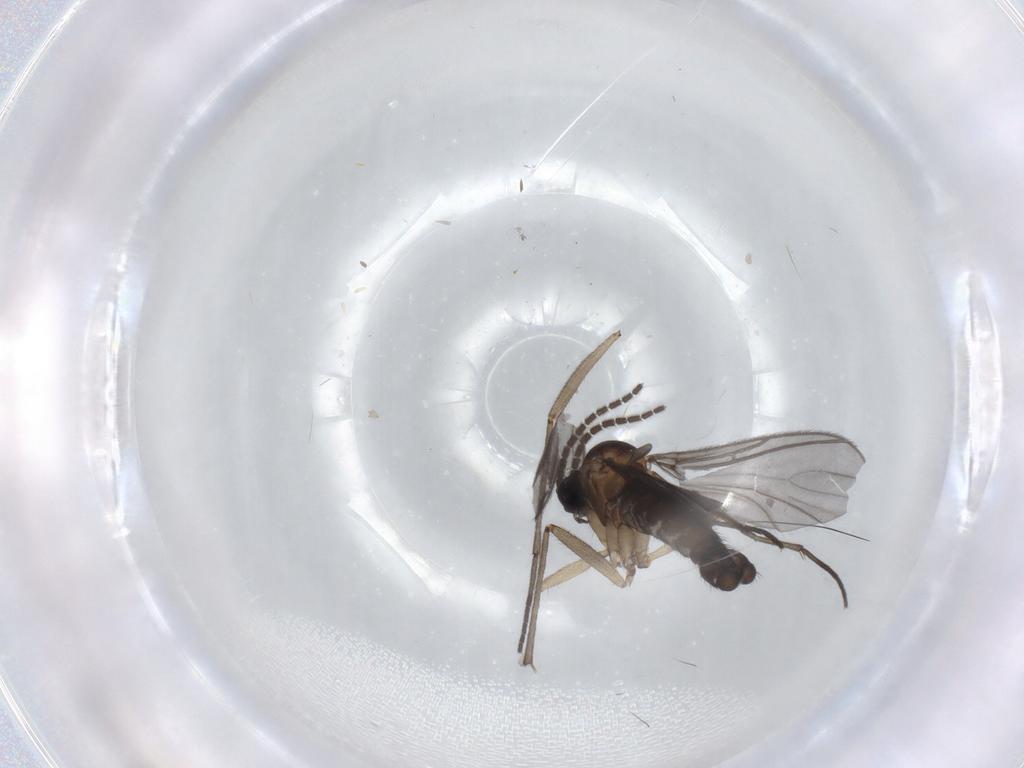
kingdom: Animalia
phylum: Arthropoda
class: Insecta
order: Diptera
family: Sciaridae
